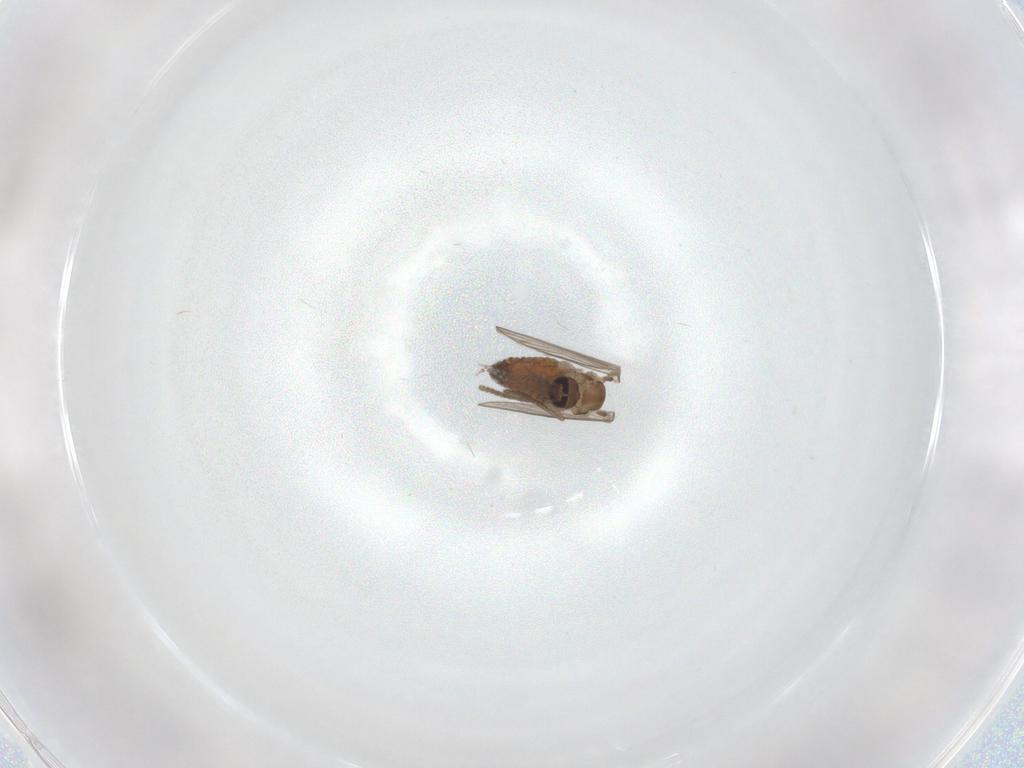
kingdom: Animalia
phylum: Arthropoda
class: Insecta
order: Diptera
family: Psychodidae
